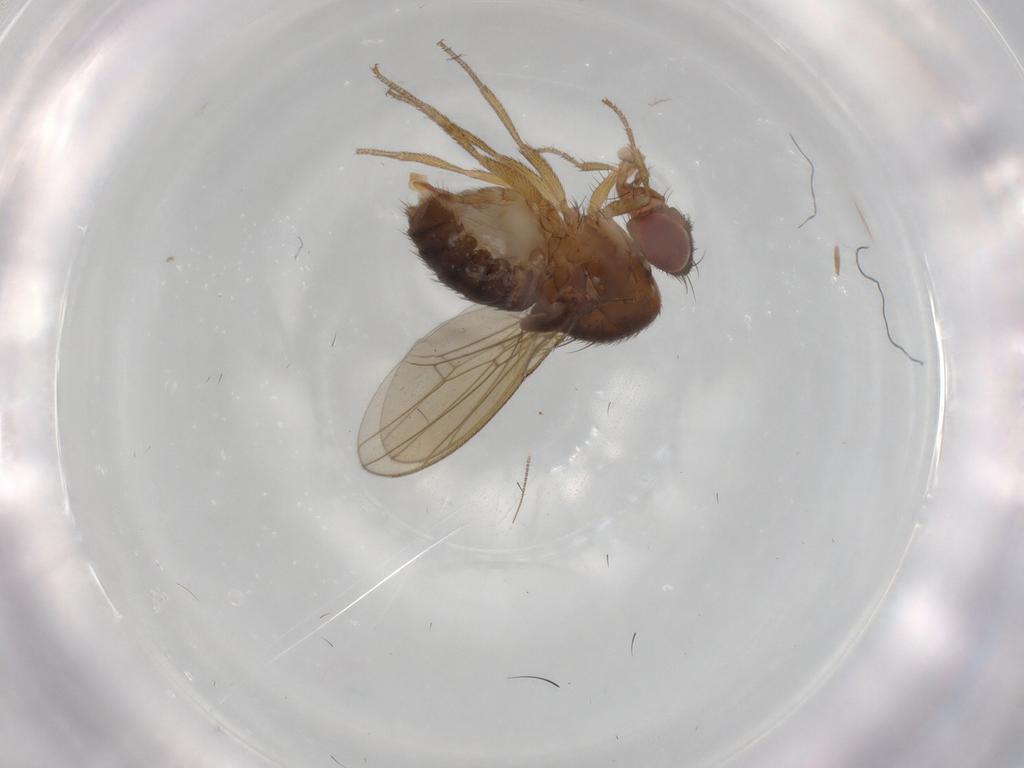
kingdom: Animalia
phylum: Arthropoda
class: Insecta
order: Diptera
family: Drosophilidae
